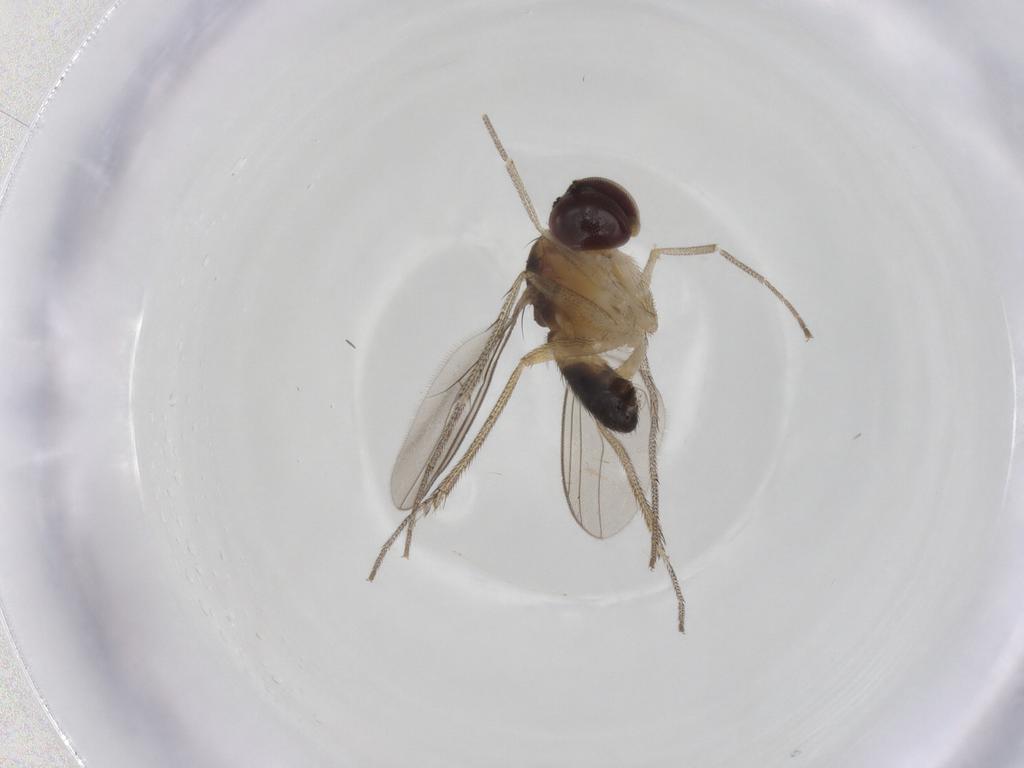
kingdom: Animalia
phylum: Arthropoda
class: Insecta
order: Diptera
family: Dolichopodidae
